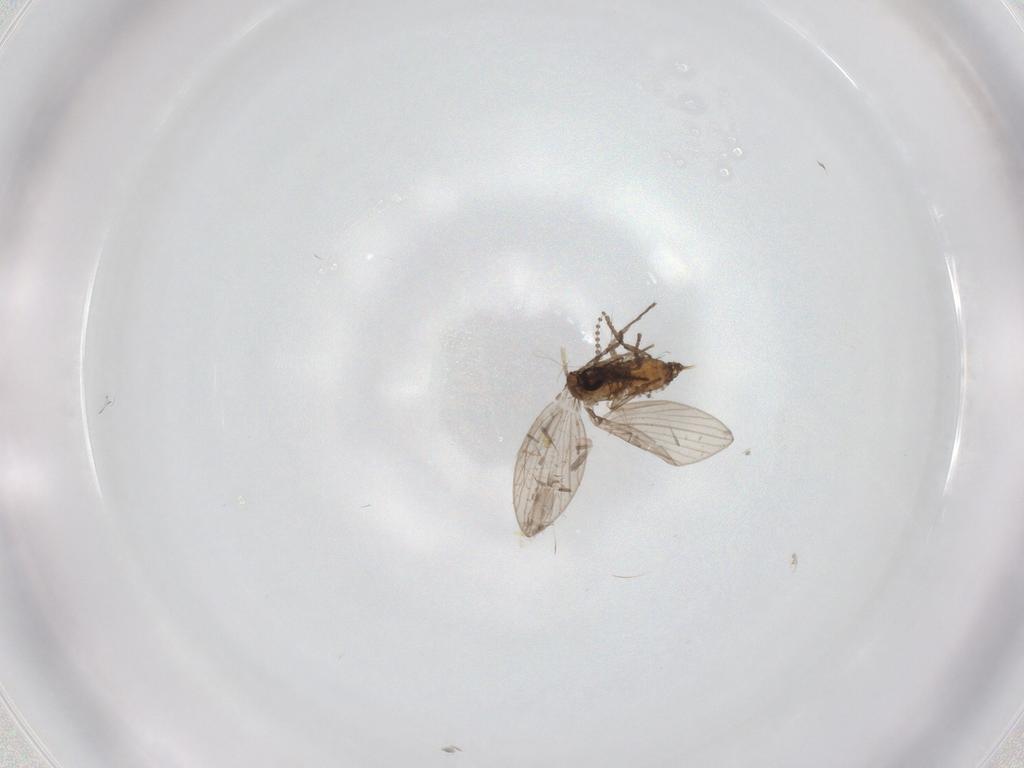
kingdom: Animalia
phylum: Arthropoda
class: Insecta
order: Diptera
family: Psychodidae
